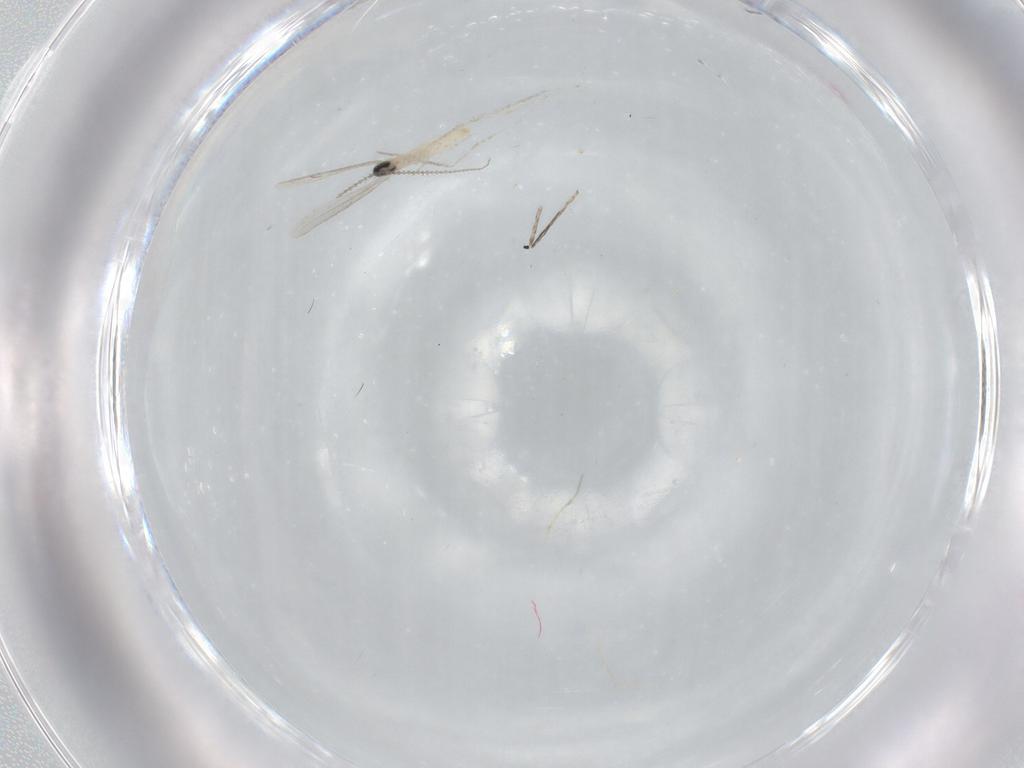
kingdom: Animalia
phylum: Arthropoda
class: Insecta
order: Diptera
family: Cecidomyiidae
